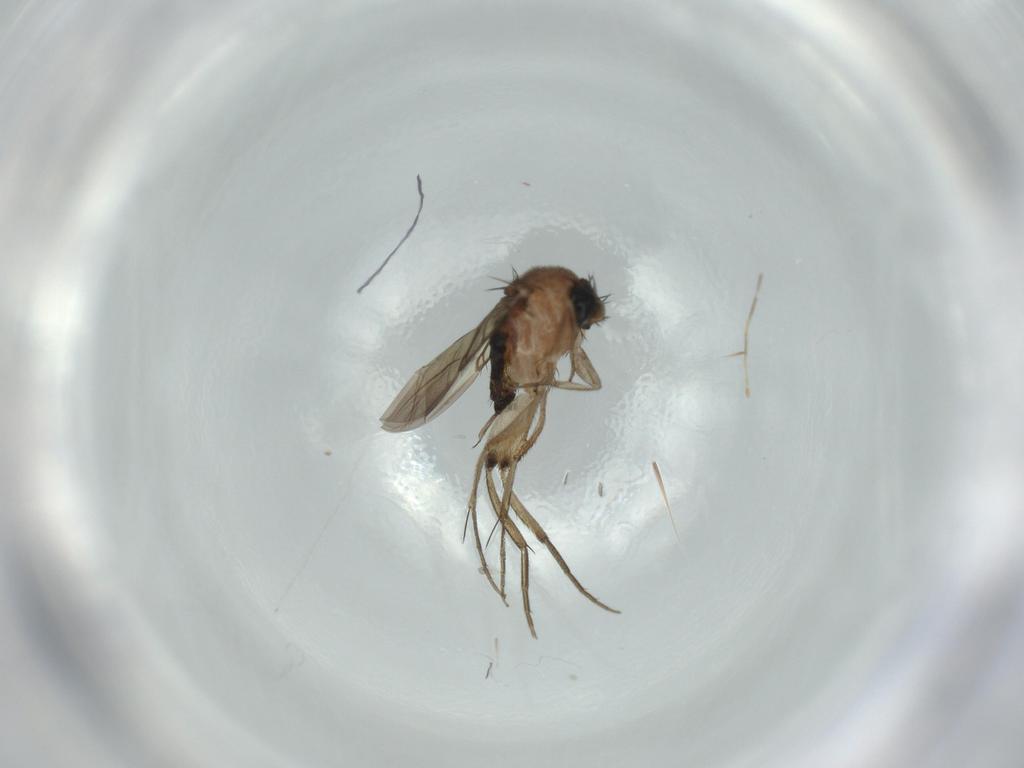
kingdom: Animalia
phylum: Arthropoda
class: Insecta
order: Diptera
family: Phoridae
